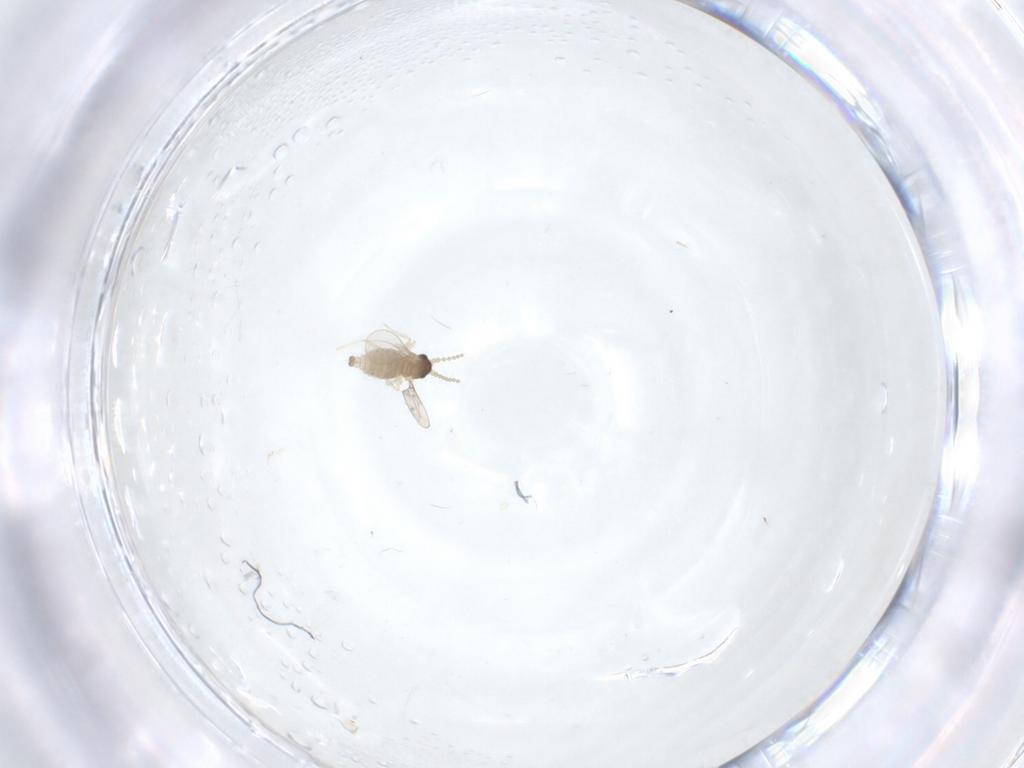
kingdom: Animalia
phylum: Arthropoda
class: Insecta
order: Diptera
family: Cecidomyiidae
